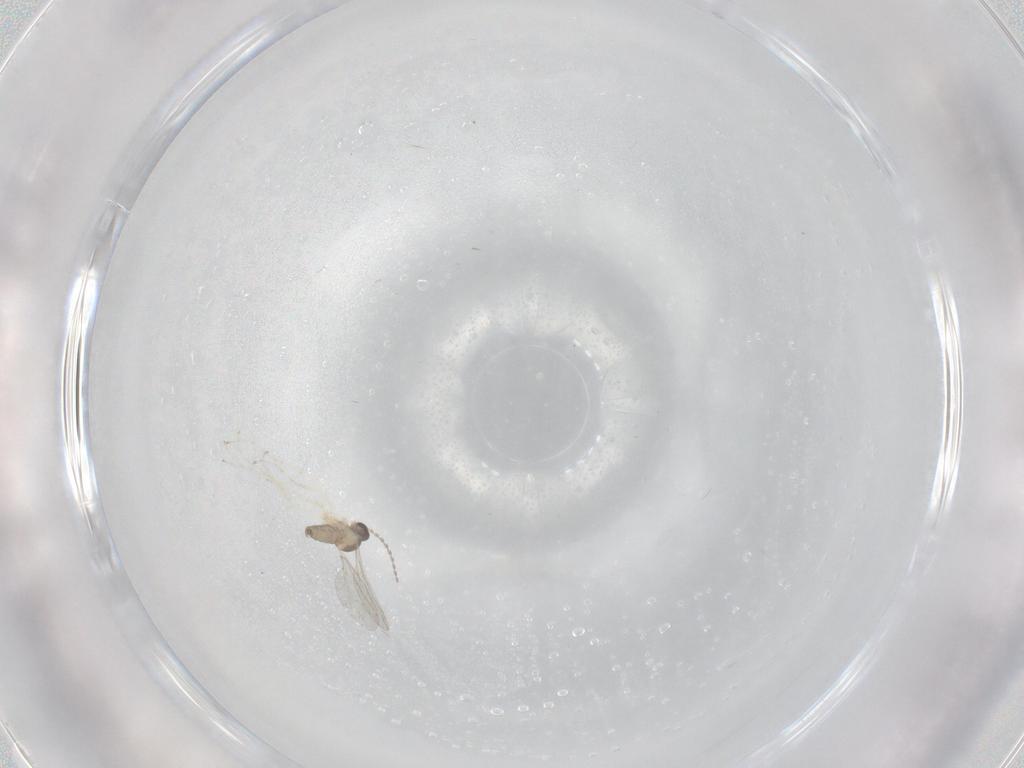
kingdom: Animalia
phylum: Arthropoda
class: Insecta
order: Diptera
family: Cecidomyiidae
